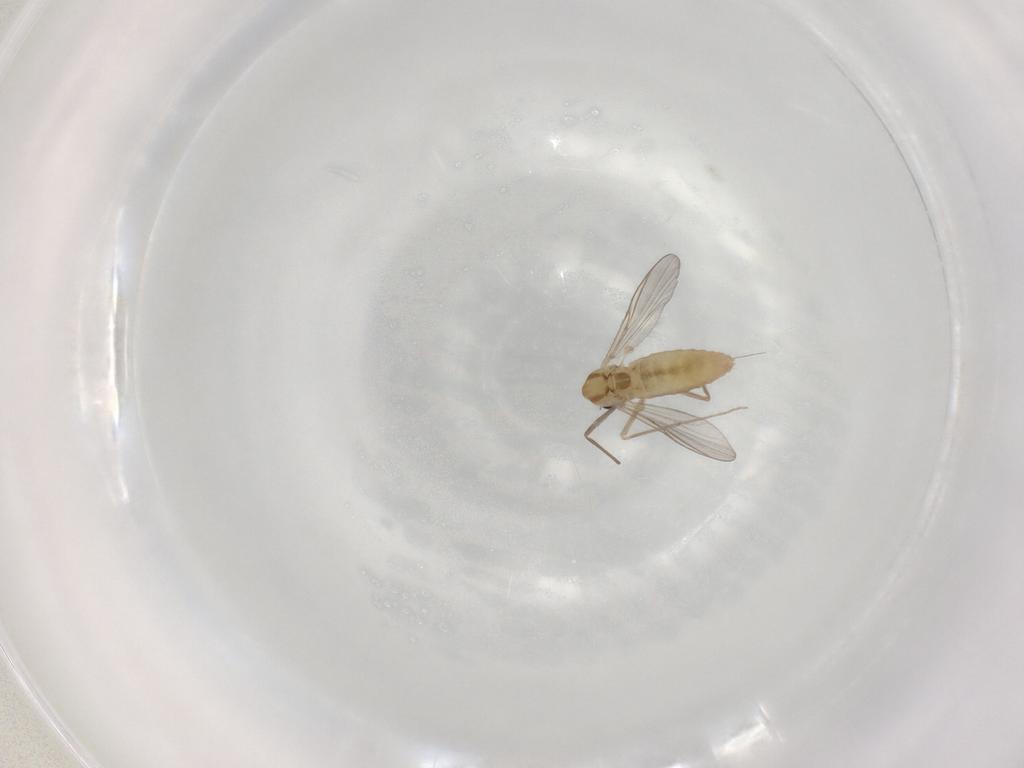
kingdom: Animalia
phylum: Arthropoda
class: Insecta
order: Diptera
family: Chironomidae
